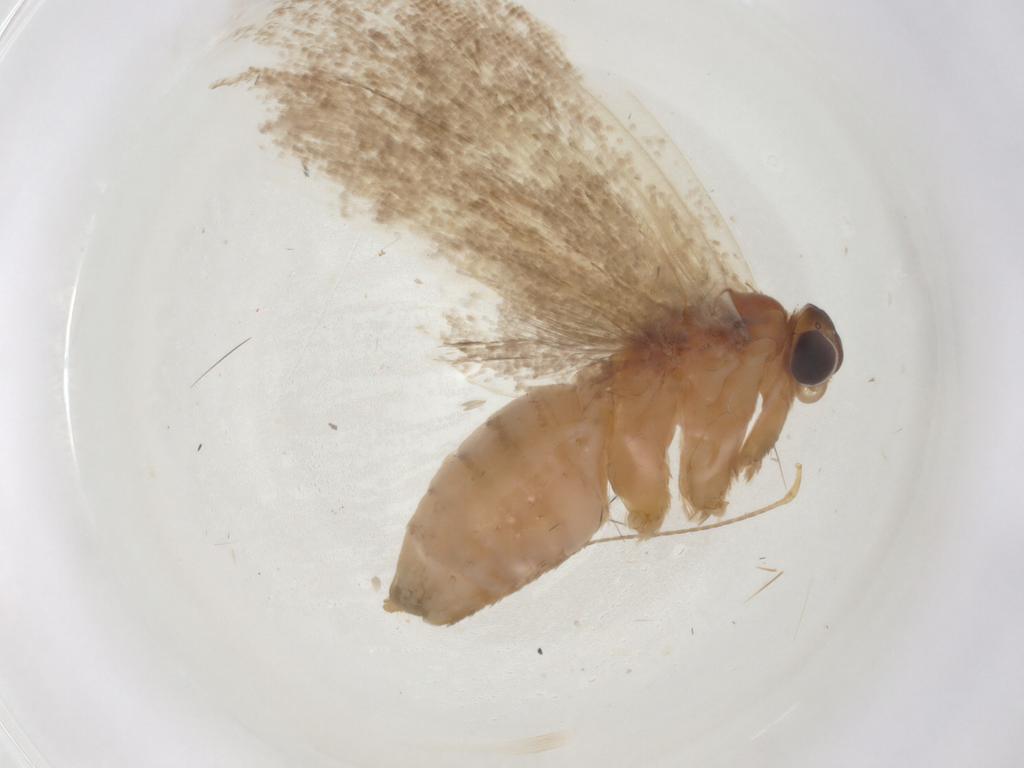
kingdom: Animalia
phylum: Arthropoda
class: Insecta
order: Lepidoptera
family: Tortricidae
